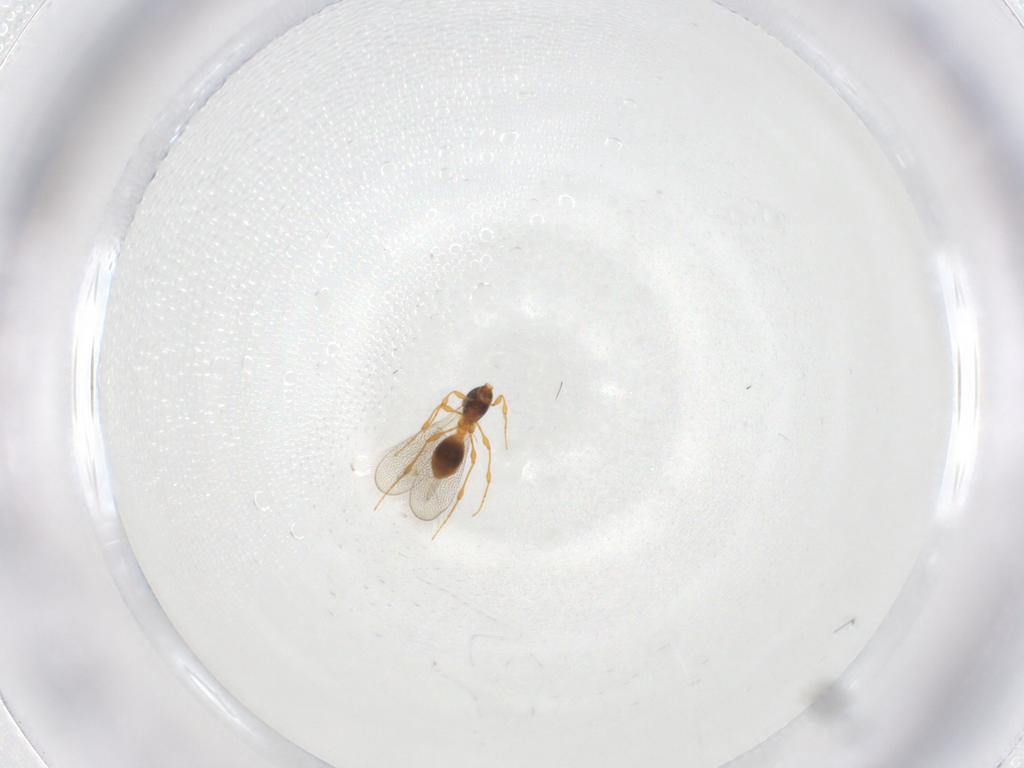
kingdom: Animalia
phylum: Arthropoda
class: Insecta
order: Hymenoptera
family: Platygastridae
